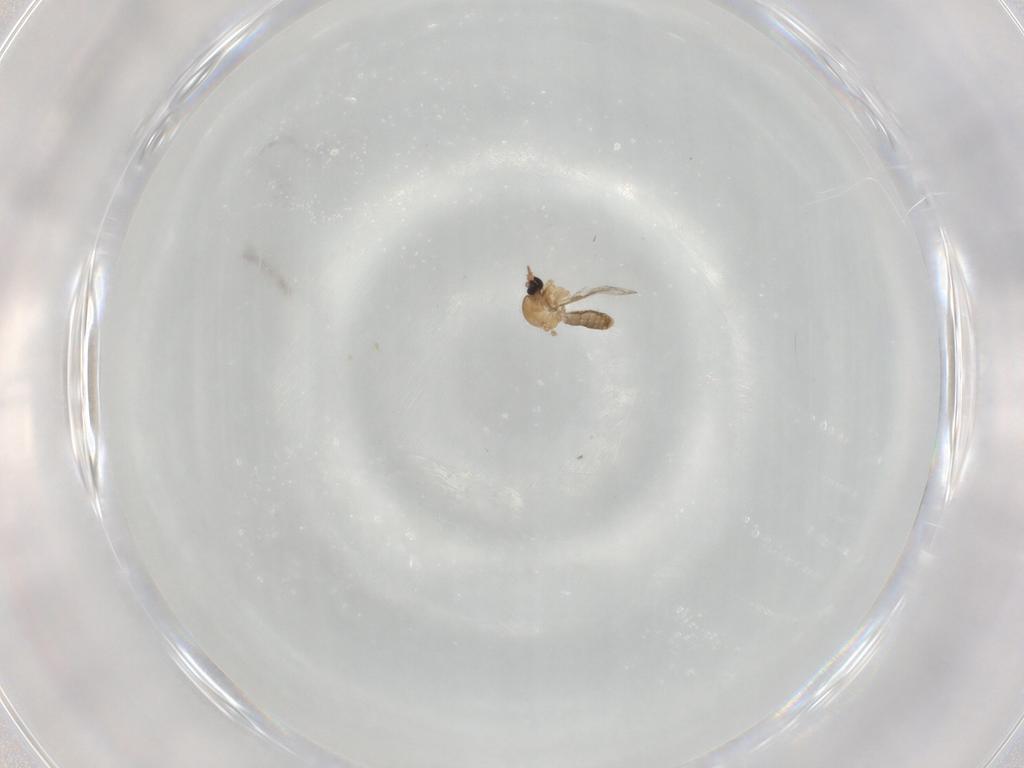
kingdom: Animalia
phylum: Arthropoda
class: Insecta
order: Diptera
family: Ceratopogonidae
